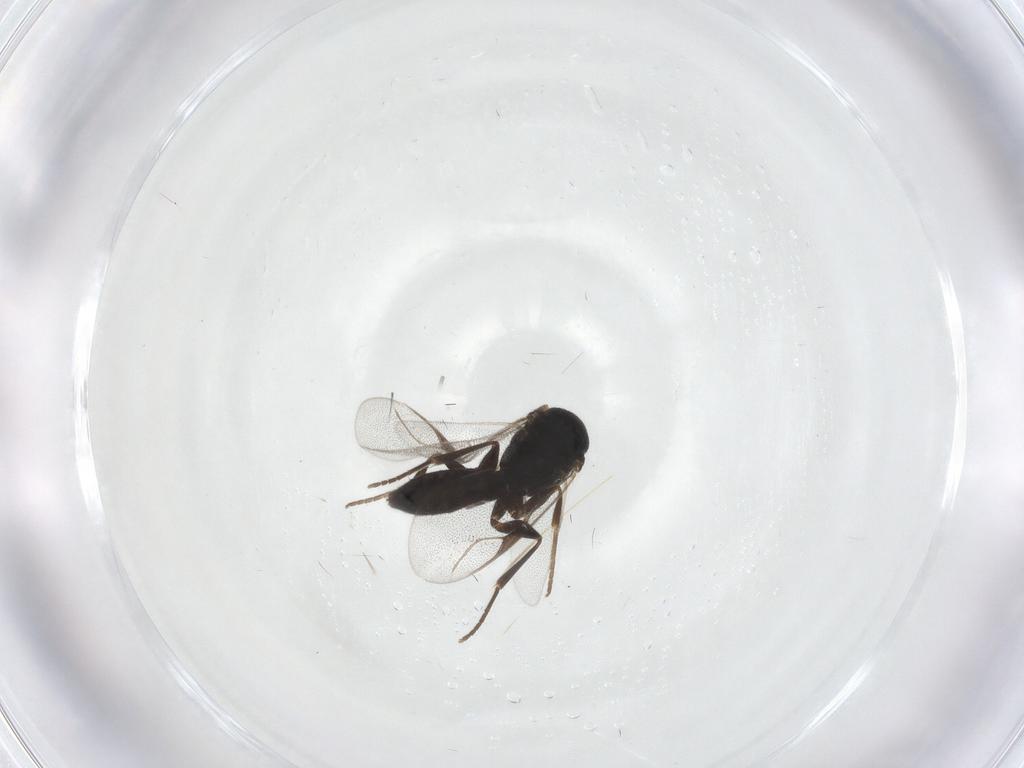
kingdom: Animalia
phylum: Arthropoda
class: Insecta
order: Hymenoptera
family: Dryinidae
